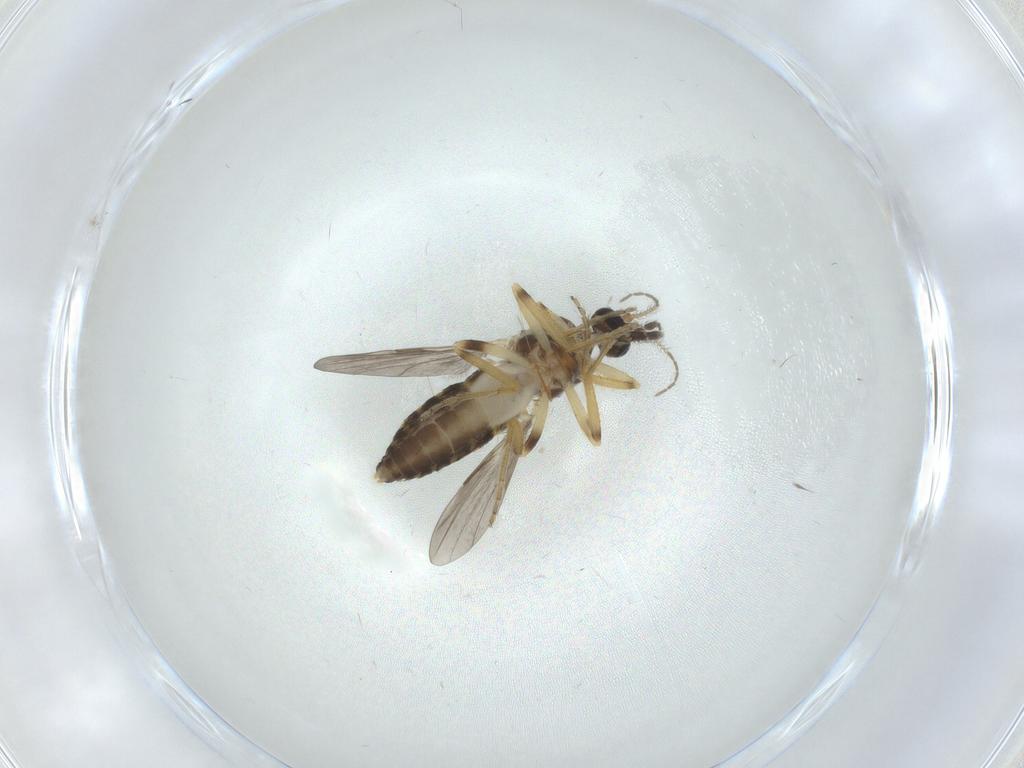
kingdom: Animalia
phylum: Arthropoda
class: Insecta
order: Diptera
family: Ceratopogonidae
